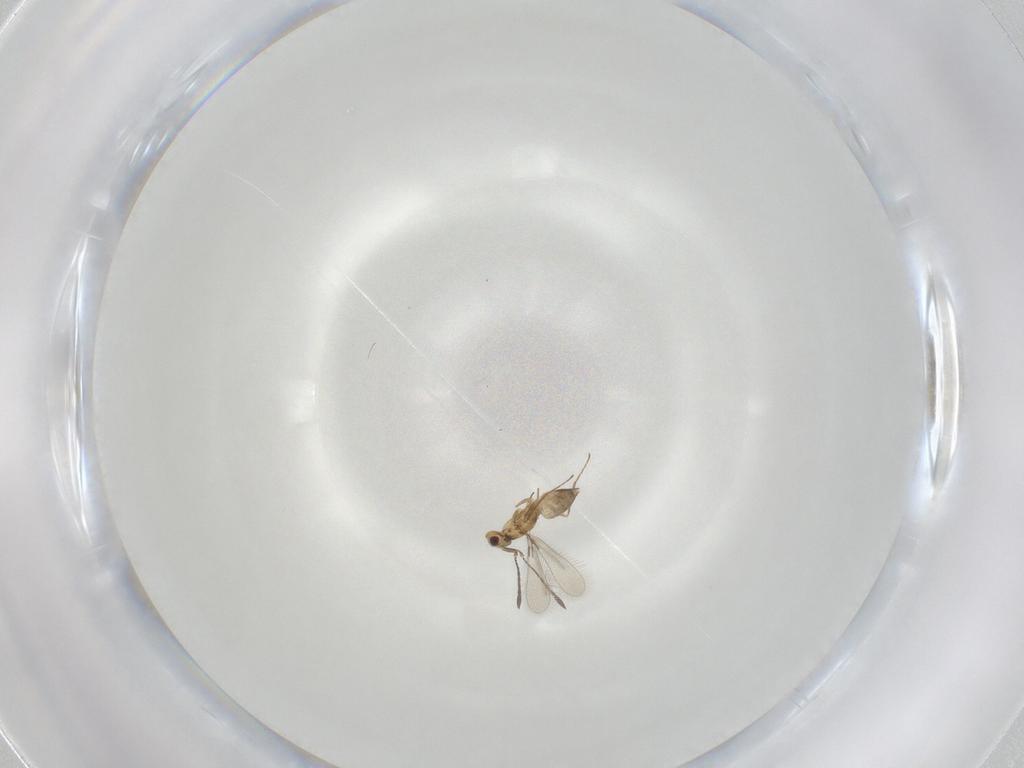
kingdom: Animalia
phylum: Arthropoda
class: Insecta
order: Hymenoptera
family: Mymaridae
